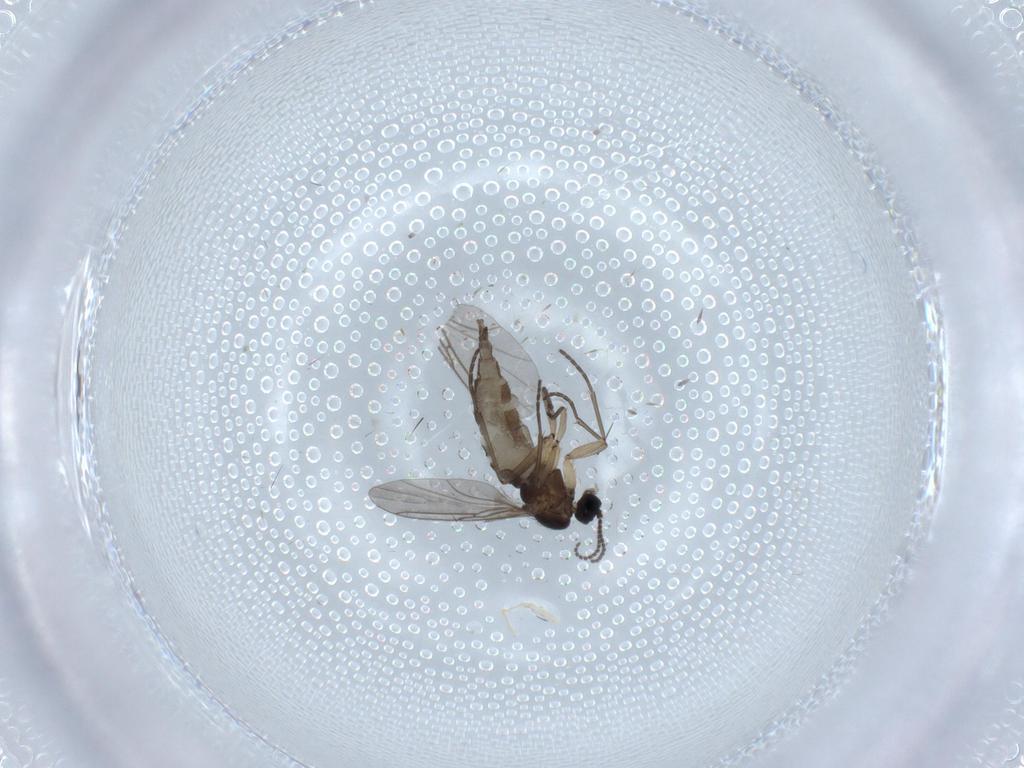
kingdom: Animalia
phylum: Arthropoda
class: Insecta
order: Diptera
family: Sciaridae
